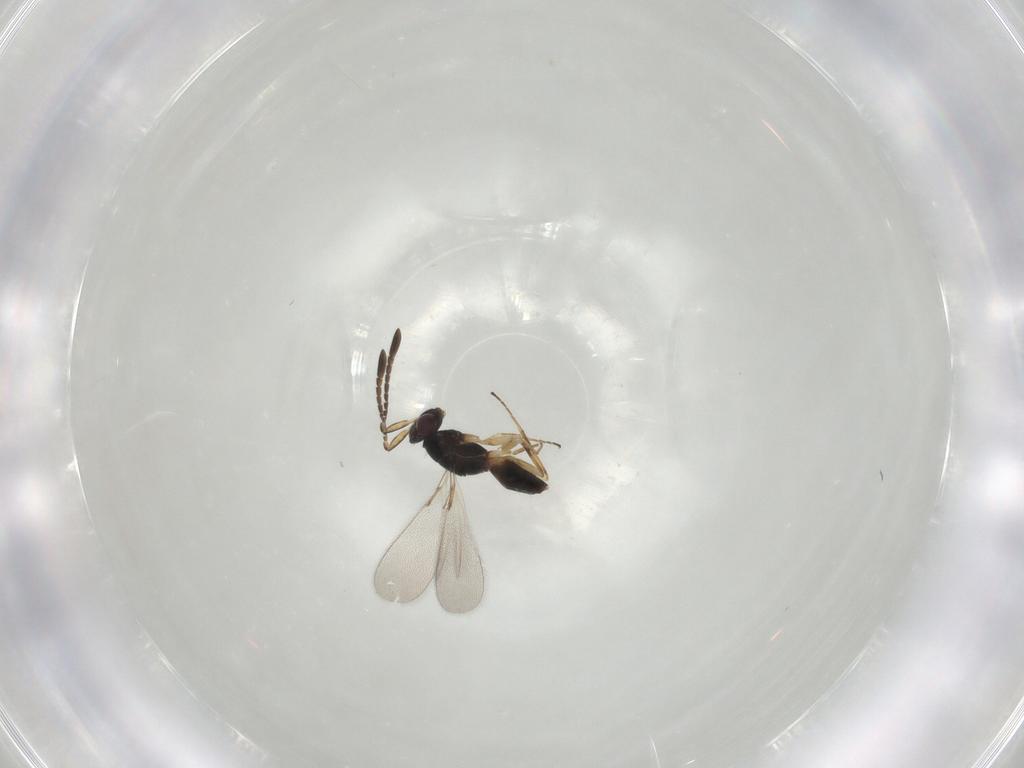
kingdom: Animalia
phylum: Arthropoda
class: Insecta
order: Hymenoptera
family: Mymaridae
